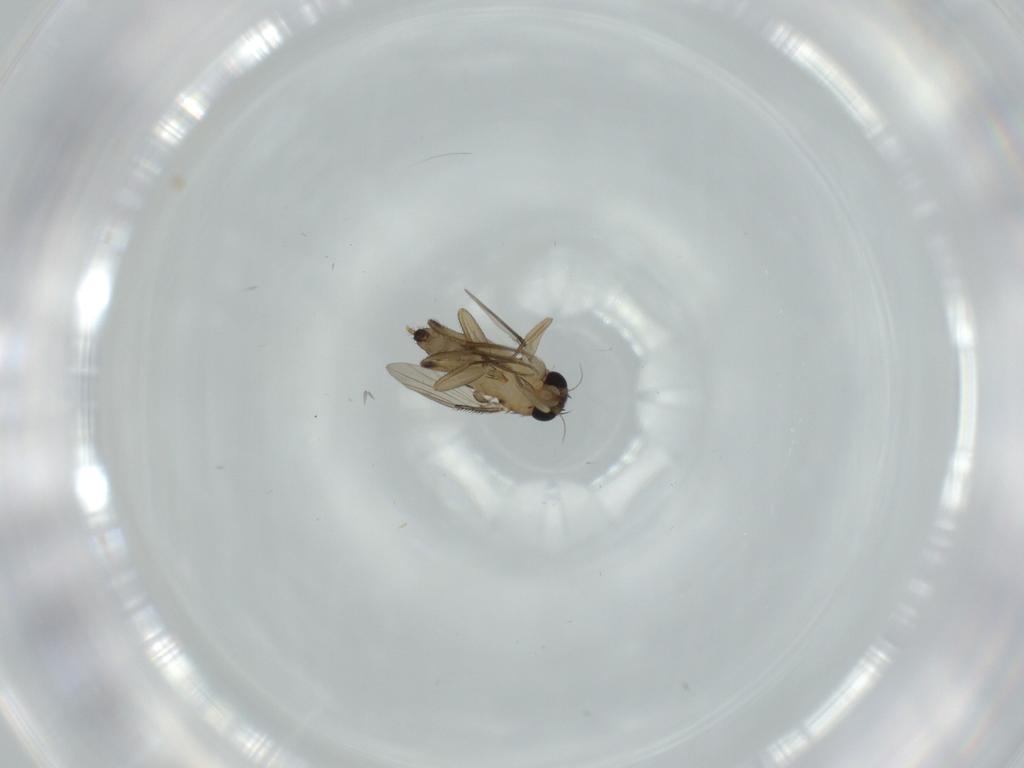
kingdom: Animalia
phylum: Arthropoda
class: Insecta
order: Diptera
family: Phoridae
